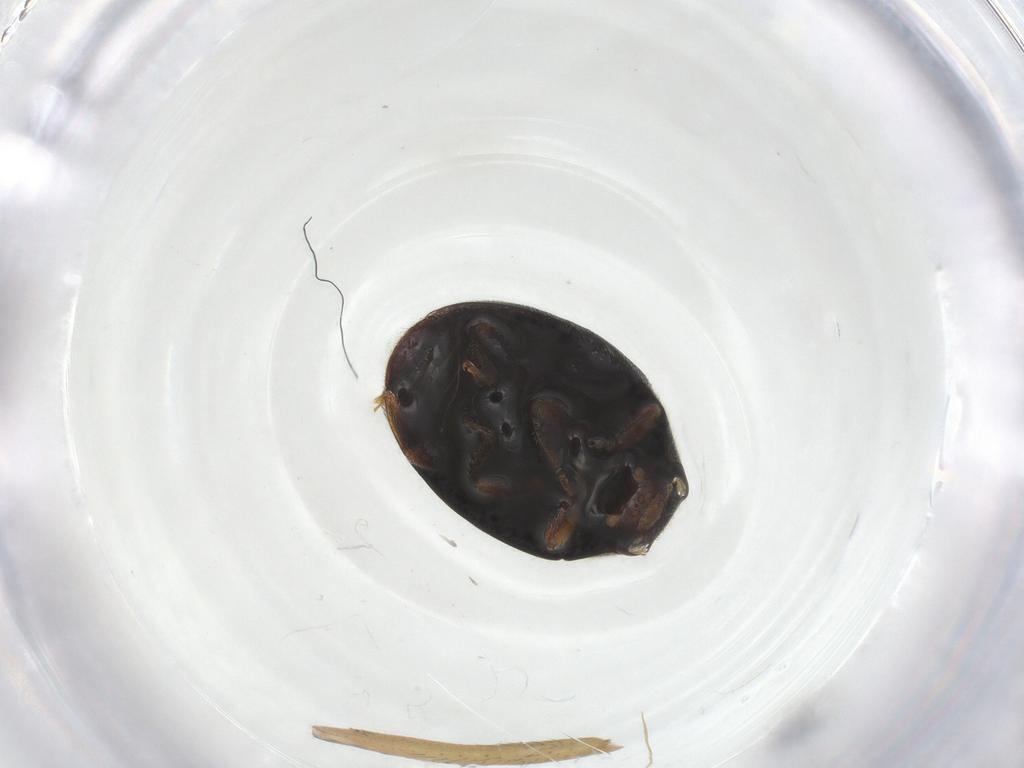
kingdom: Animalia
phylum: Arthropoda
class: Insecta
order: Coleoptera
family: Coccinellidae
